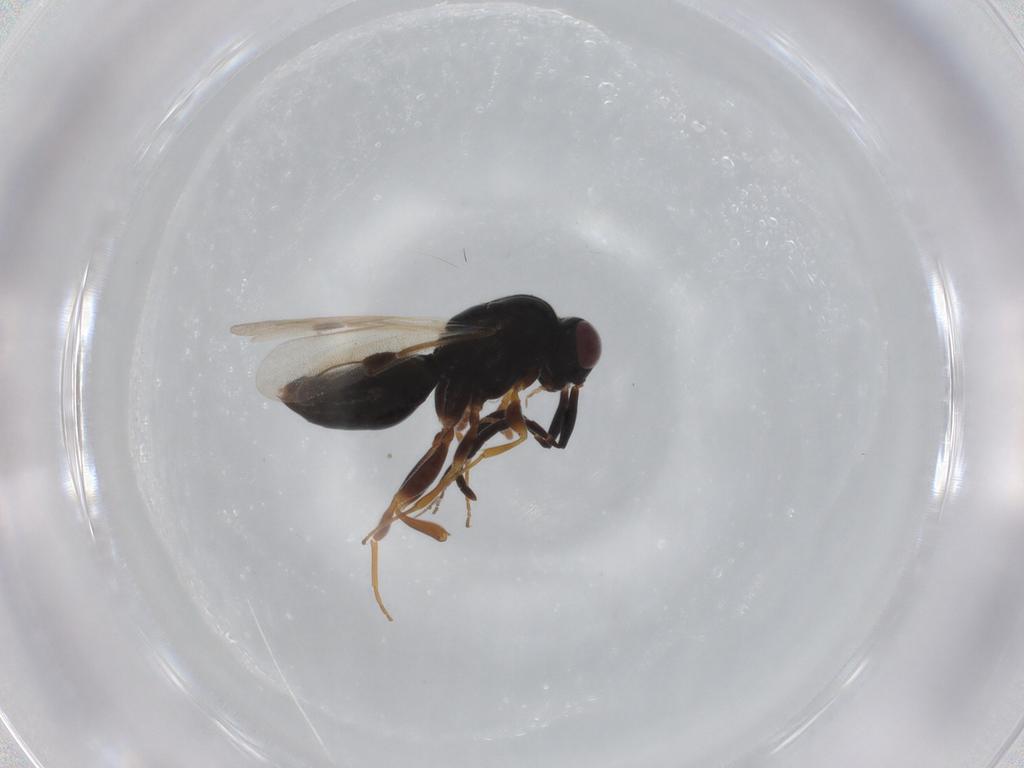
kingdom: Animalia
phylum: Arthropoda
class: Insecta
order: Hymenoptera
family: Braconidae
